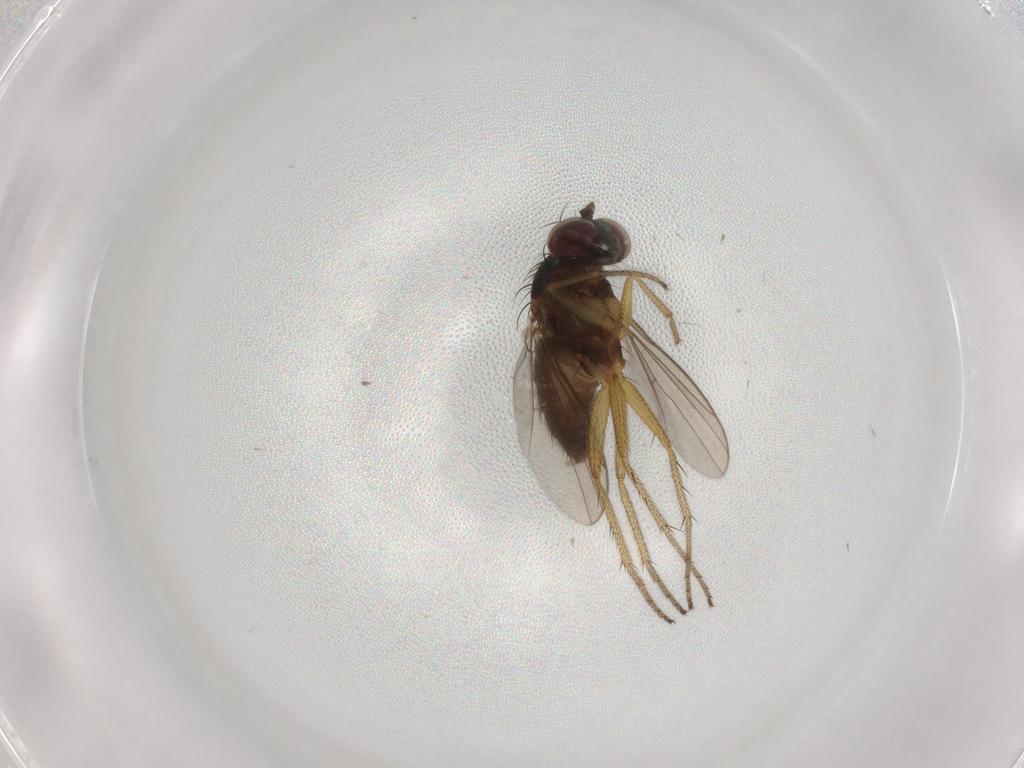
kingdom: Animalia
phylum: Arthropoda
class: Insecta
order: Diptera
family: Dolichopodidae
